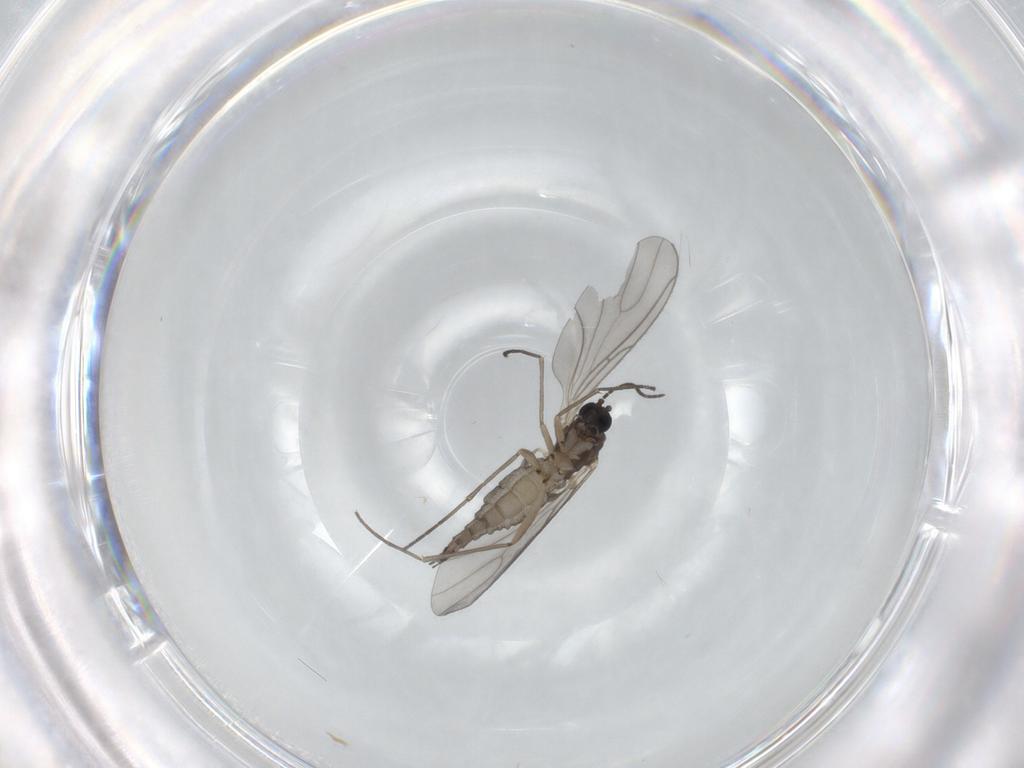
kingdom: Animalia
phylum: Arthropoda
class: Insecta
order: Diptera
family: Sciaridae
